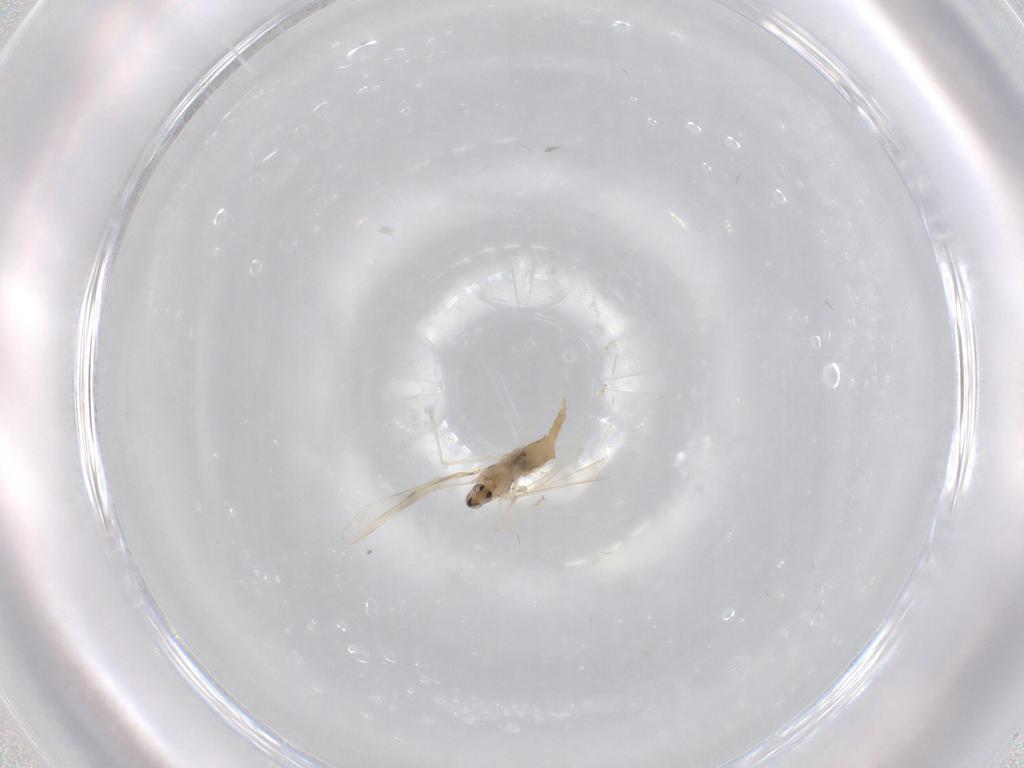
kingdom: Animalia
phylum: Arthropoda
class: Insecta
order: Diptera
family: Cecidomyiidae
